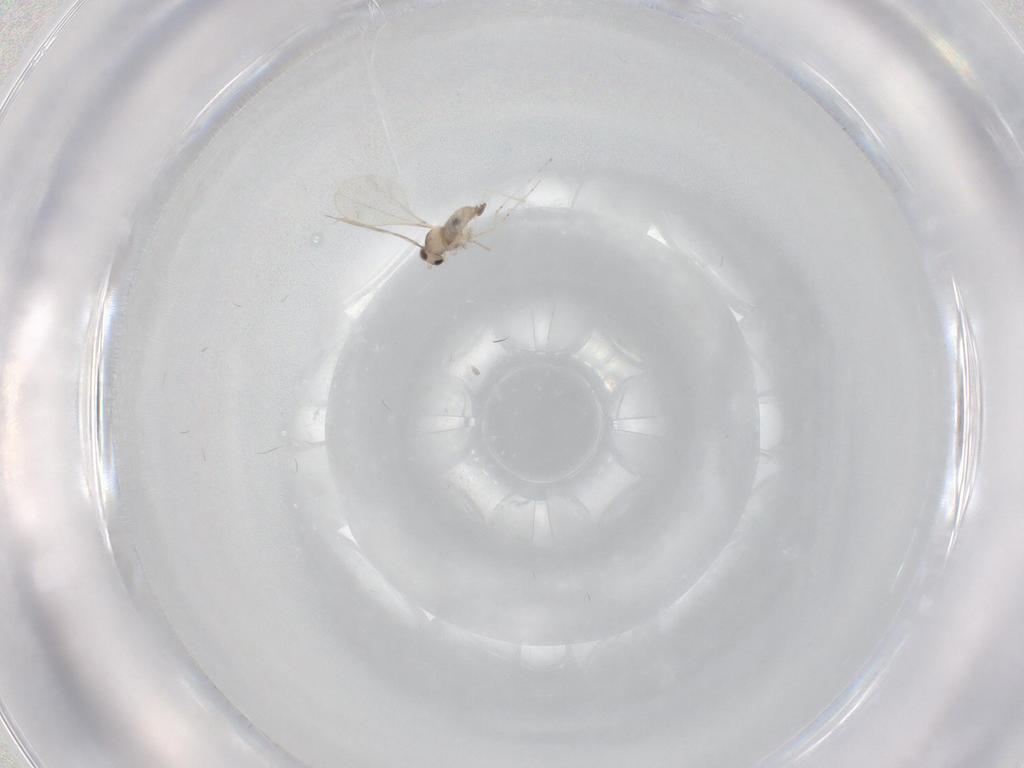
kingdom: Animalia
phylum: Arthropoda
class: Insecta
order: Diptera
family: Cecidomyiidae
